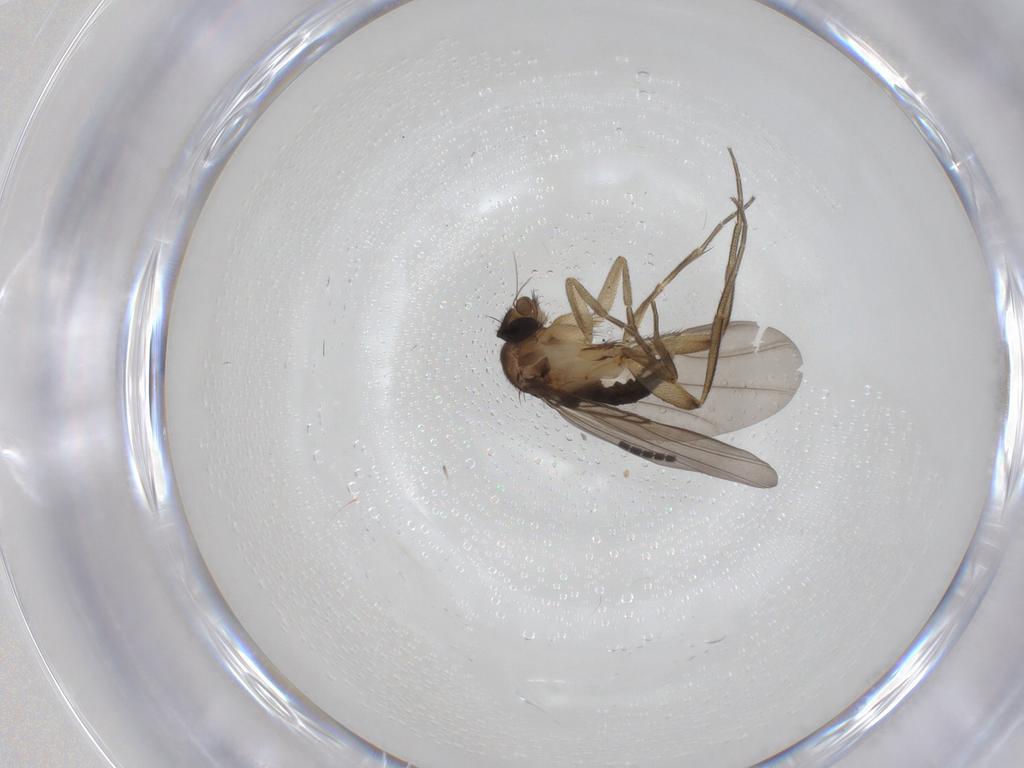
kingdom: Animalia
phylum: Arthropoda
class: Insecta
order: Diptera
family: Phoridae
